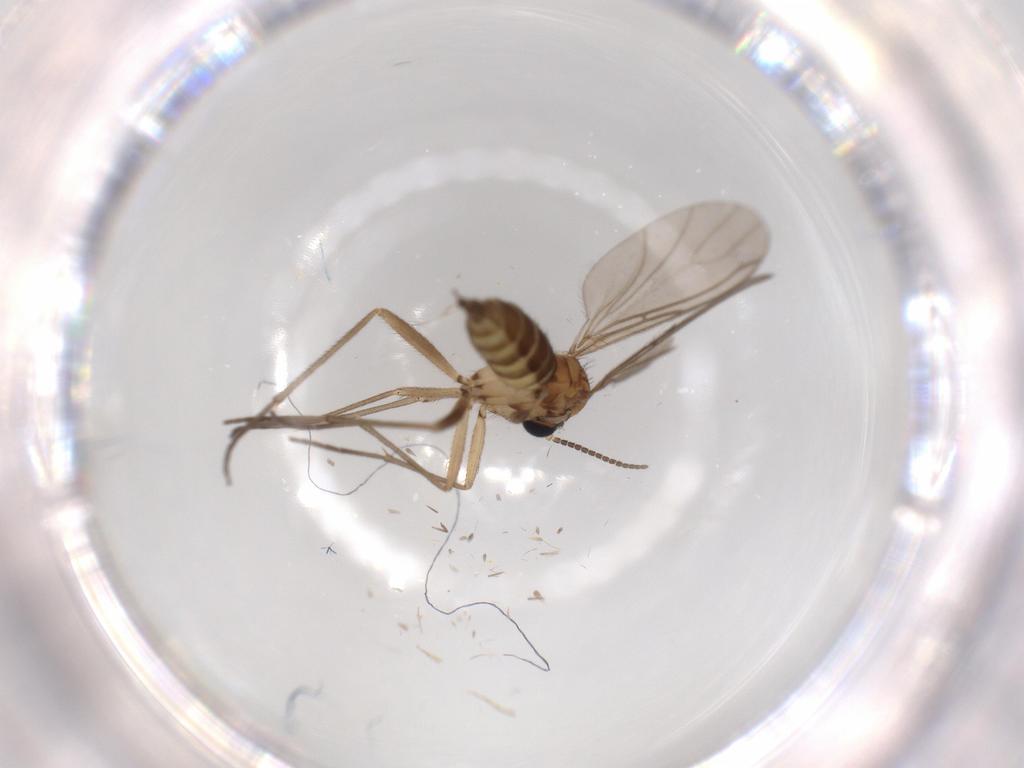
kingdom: Animalia
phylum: Arthropoda
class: Insecta
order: Diptera
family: Sciaridae
